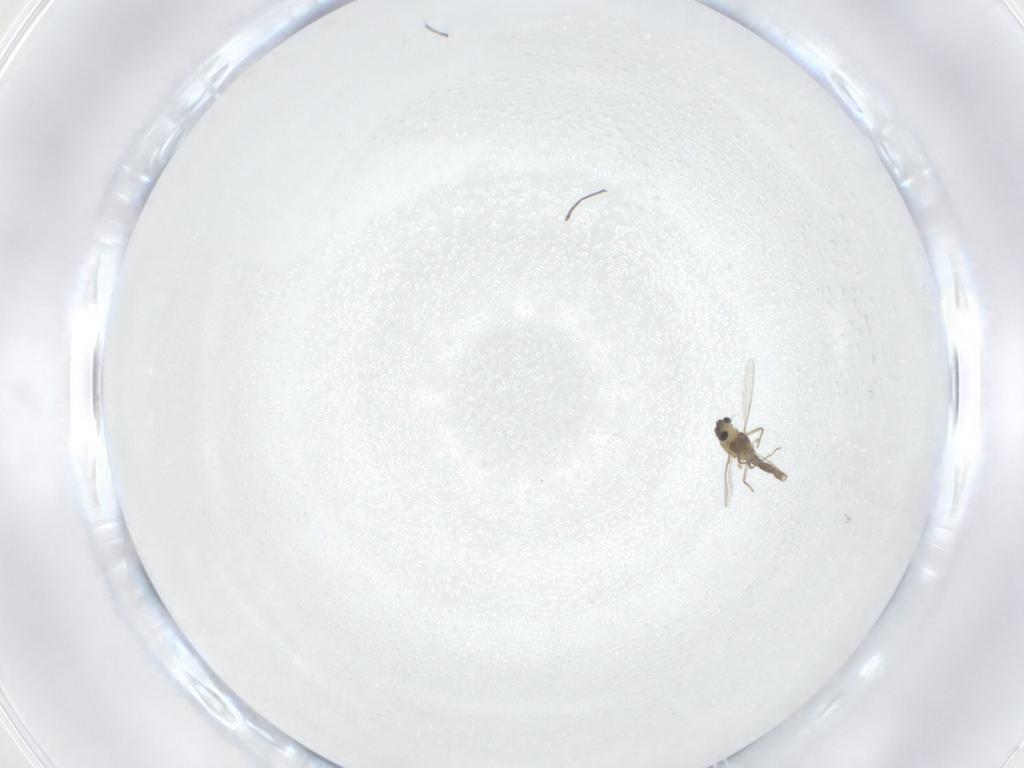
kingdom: Animalia
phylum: Arthropoda
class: Insecta
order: Diptera
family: Chironomidae
